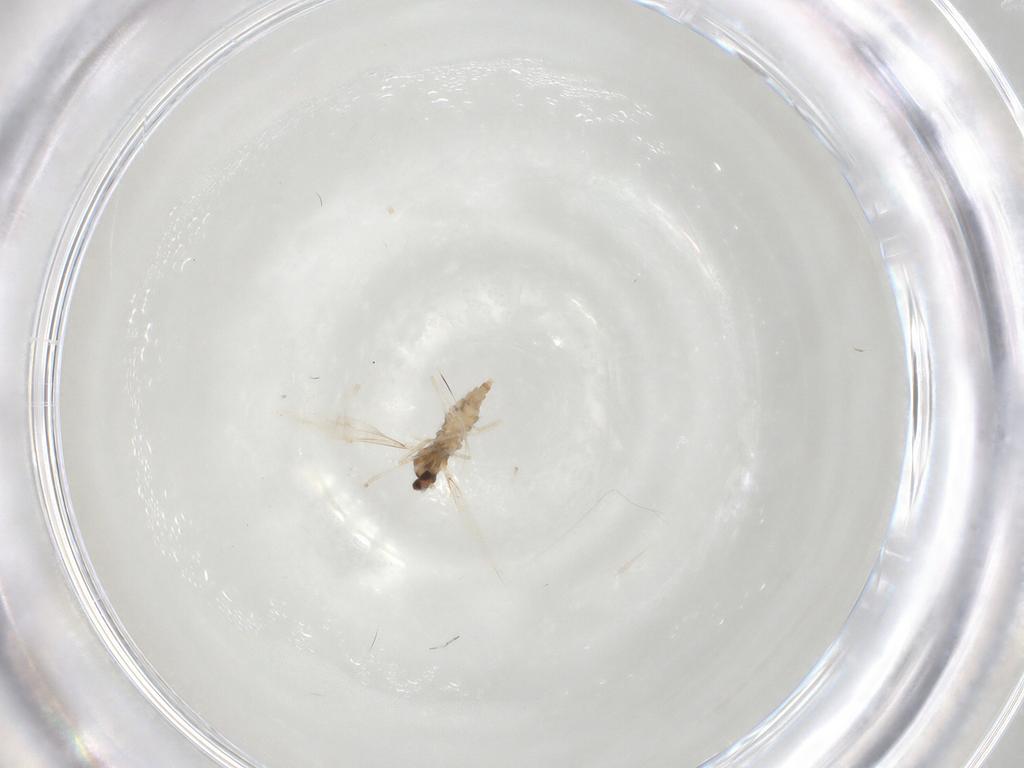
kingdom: Animalia
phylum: Arthropoda
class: Insecta
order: Diptera
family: Cecidomyiidae
